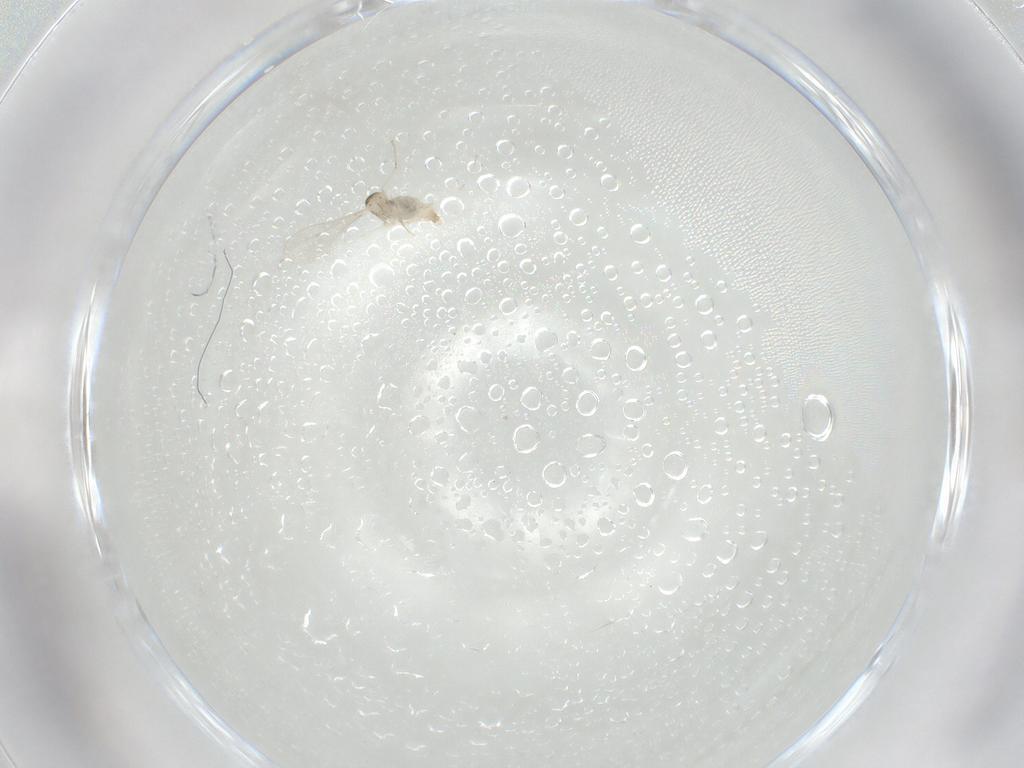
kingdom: Animalia
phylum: Arthropoda
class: Insecta
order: Diptera
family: Cecidomyiidae
